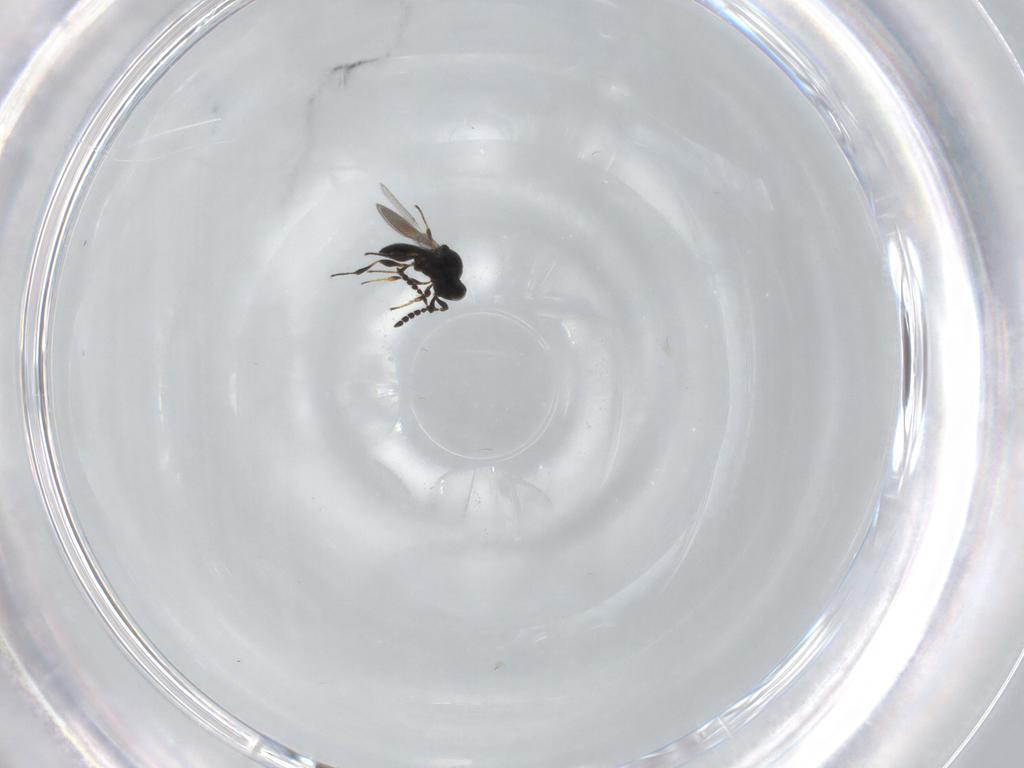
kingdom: Animalia
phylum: Arthropoda
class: Insecta
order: Hymenoptera
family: Platygastridae
